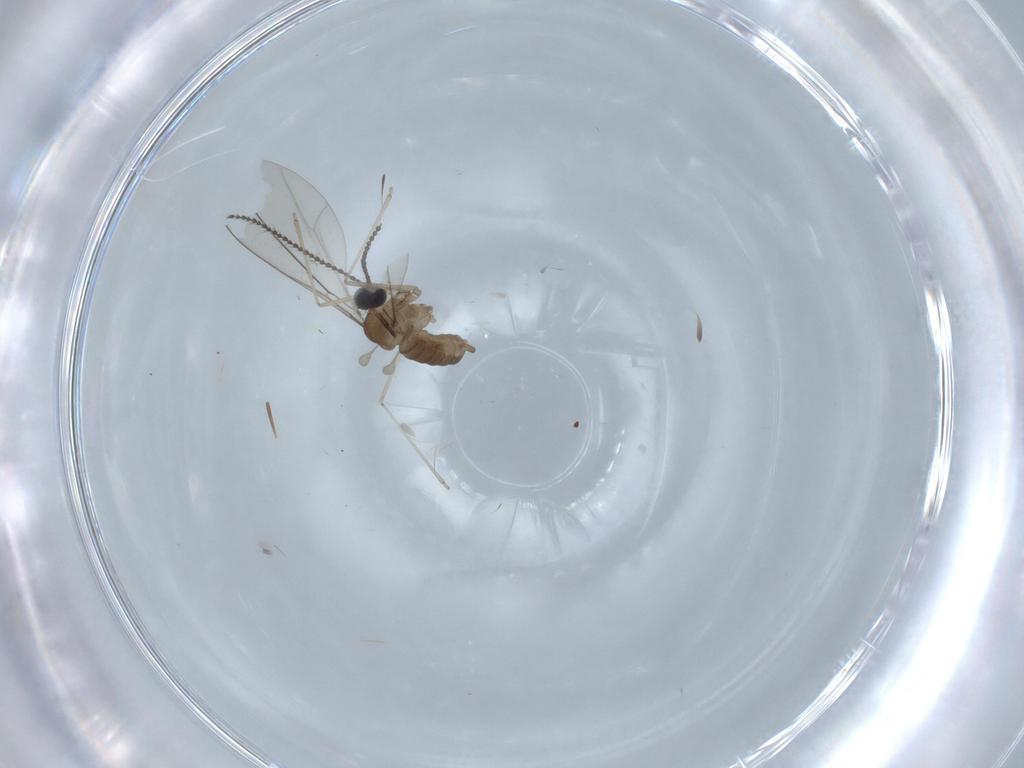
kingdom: Animalia
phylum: Arthropoda
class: Insecta
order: Diptera
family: Cecidomyiidae
